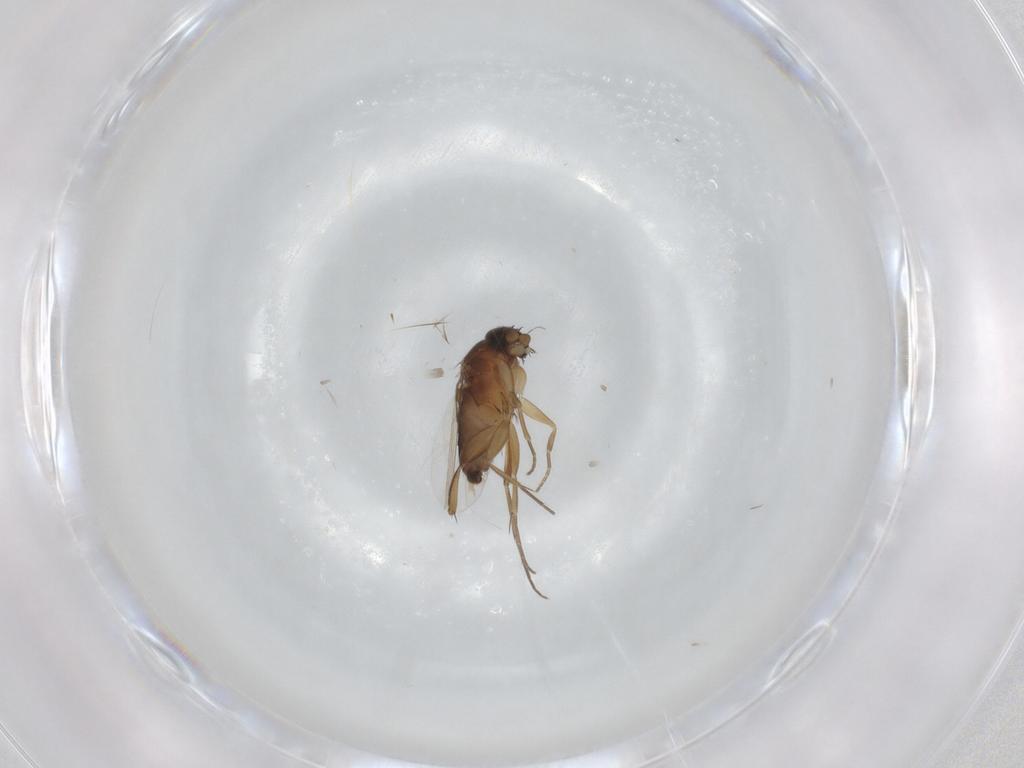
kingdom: Animalia
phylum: Arthropoda
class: Insecta
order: Diptera
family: Phoridae
